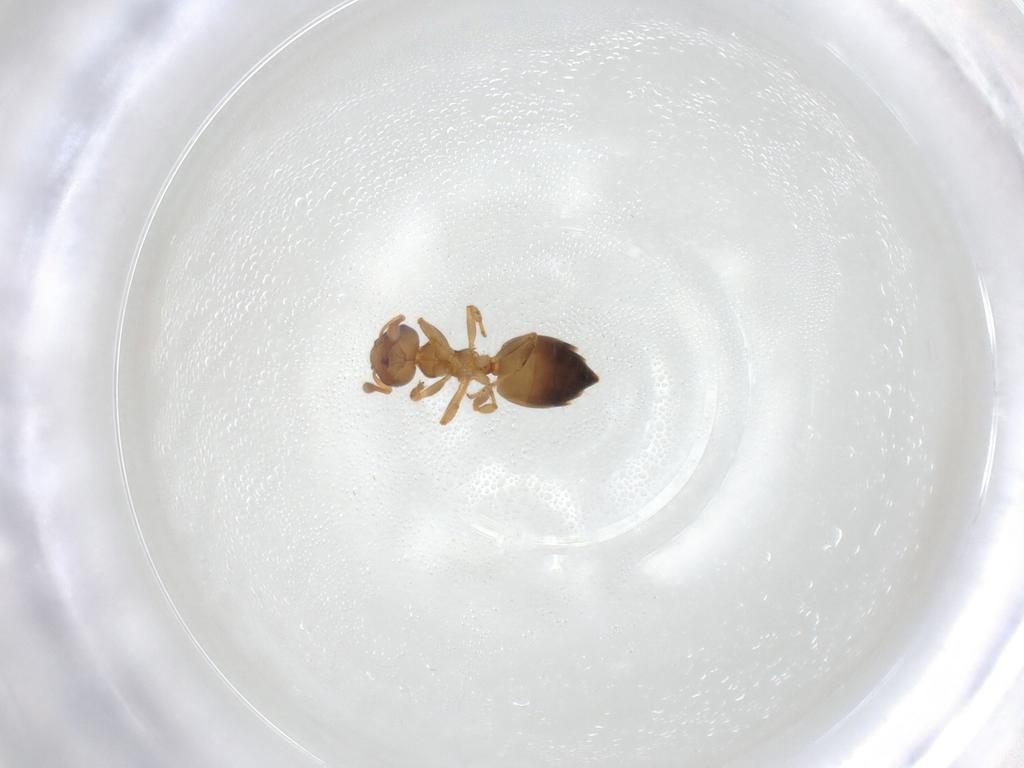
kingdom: Animalia
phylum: Arthropoda
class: Insecta
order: Hymenoptera
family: Formicidae
